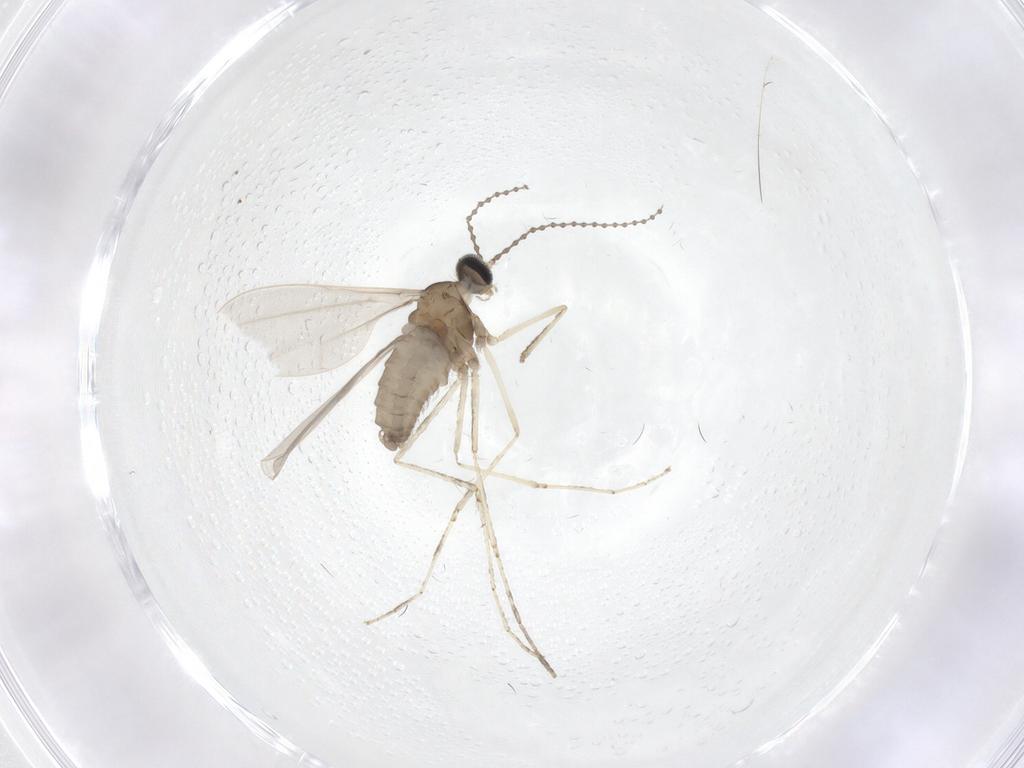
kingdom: Animalia
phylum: Arthropoda
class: Insecta
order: Diptera
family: Cecidomyiidae
